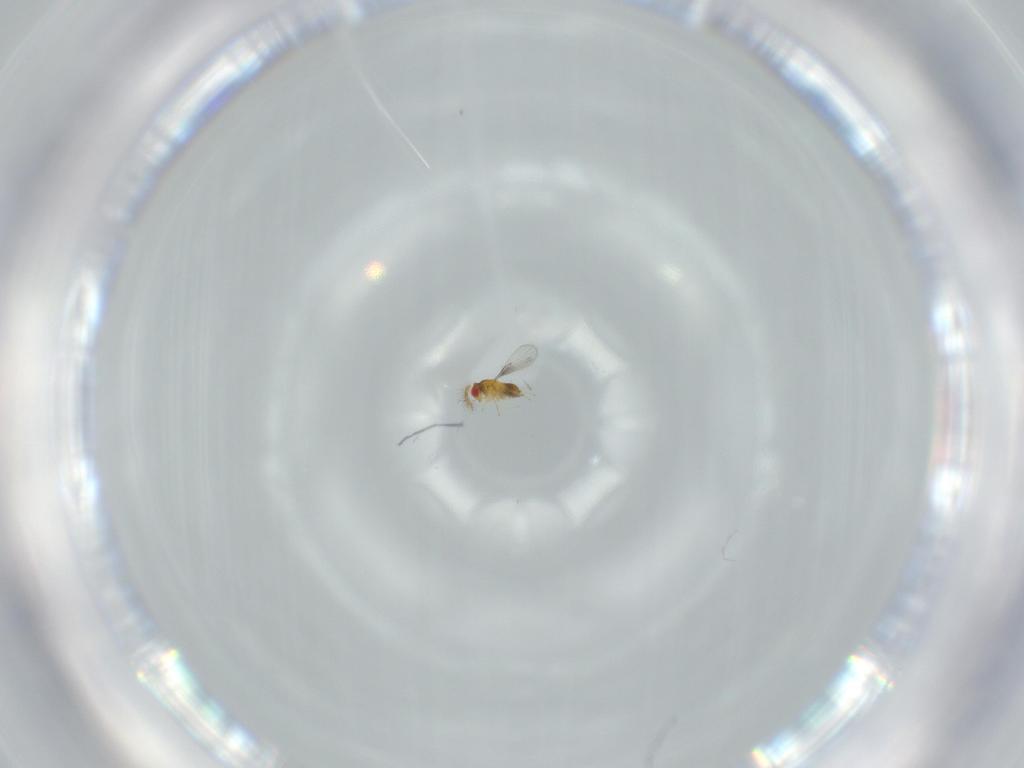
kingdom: Animalia
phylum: Arthropoda
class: Insecta
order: Hymenoptera
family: Trichogrammatidae
